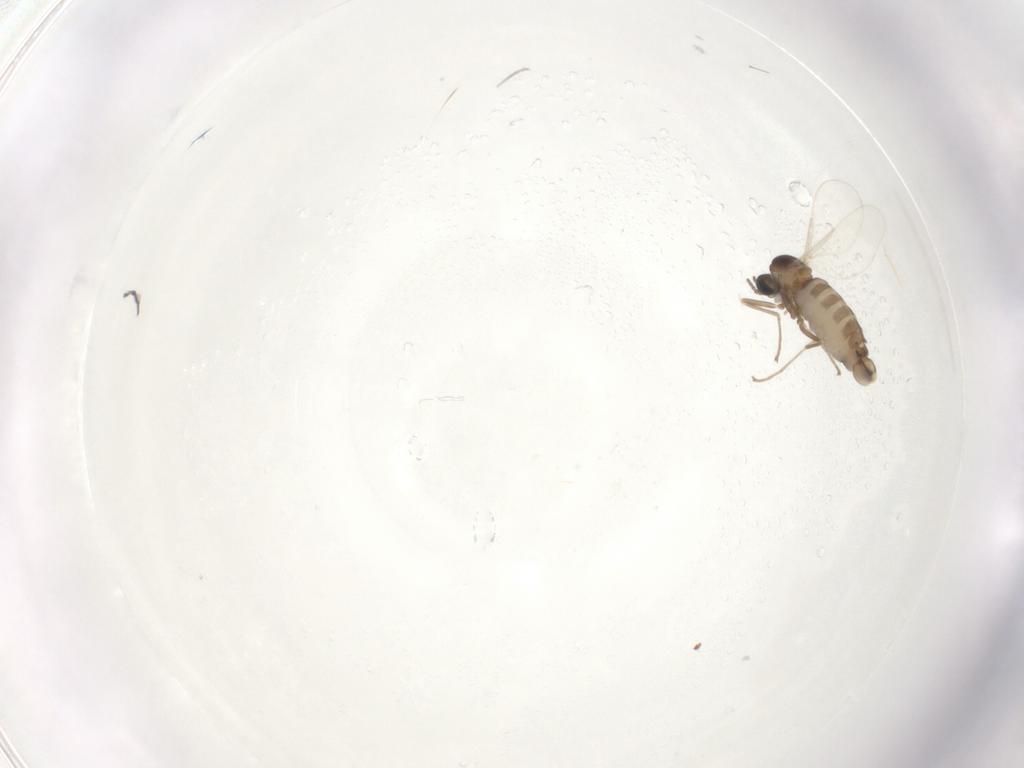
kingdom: Animalia
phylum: Arthropoda
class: Insecta
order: Diptera
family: Cecidomyiidae
